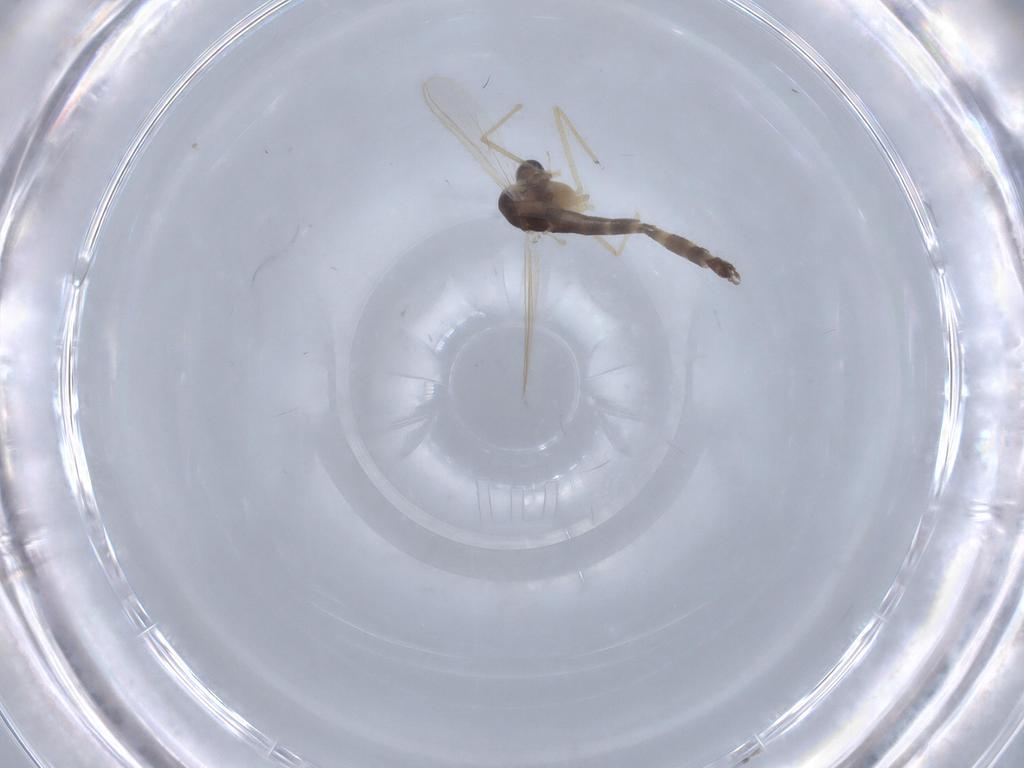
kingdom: Animalia
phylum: Arthropoda
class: Insecta
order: Diptera
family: Chironomidae
